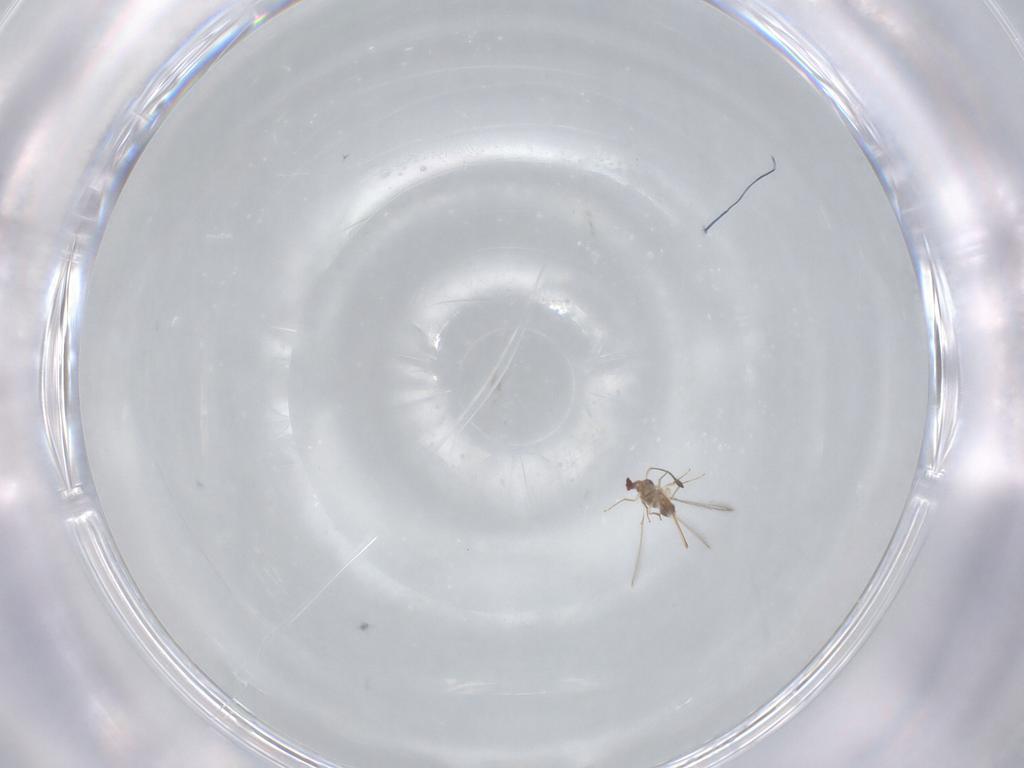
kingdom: Animalia
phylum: Arthropoda
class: Insecta
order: Hymenoptera
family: Mymaridae
